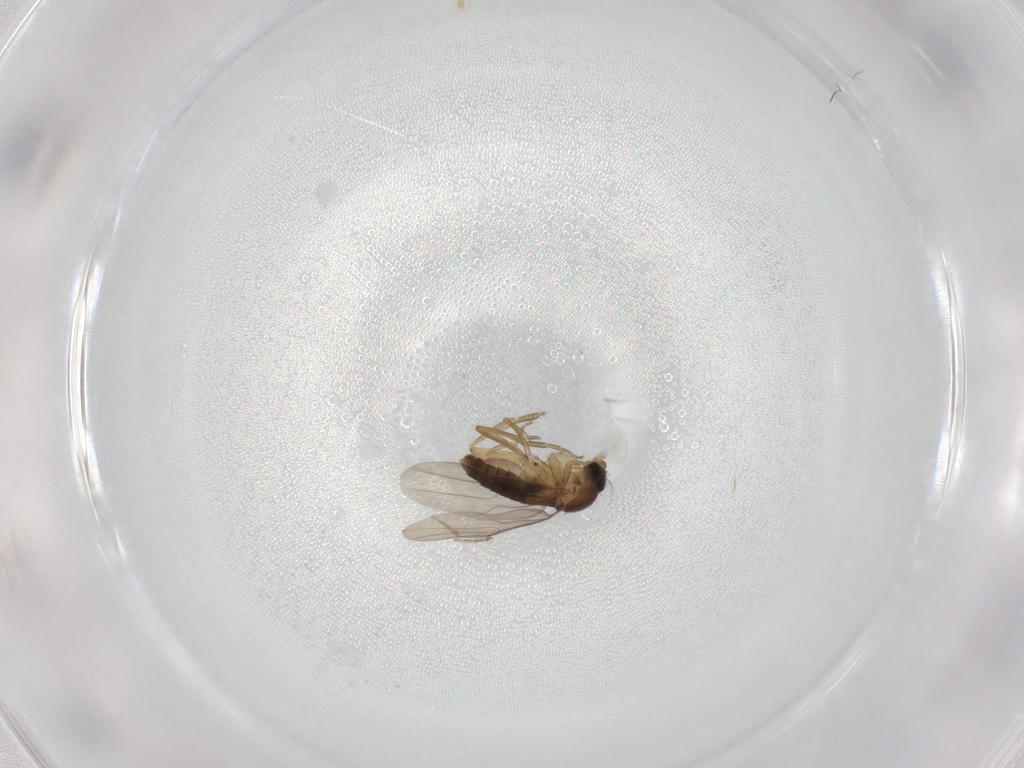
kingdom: Animalia
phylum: Arthropoda
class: Insecta
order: Diptera
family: Phoridae
